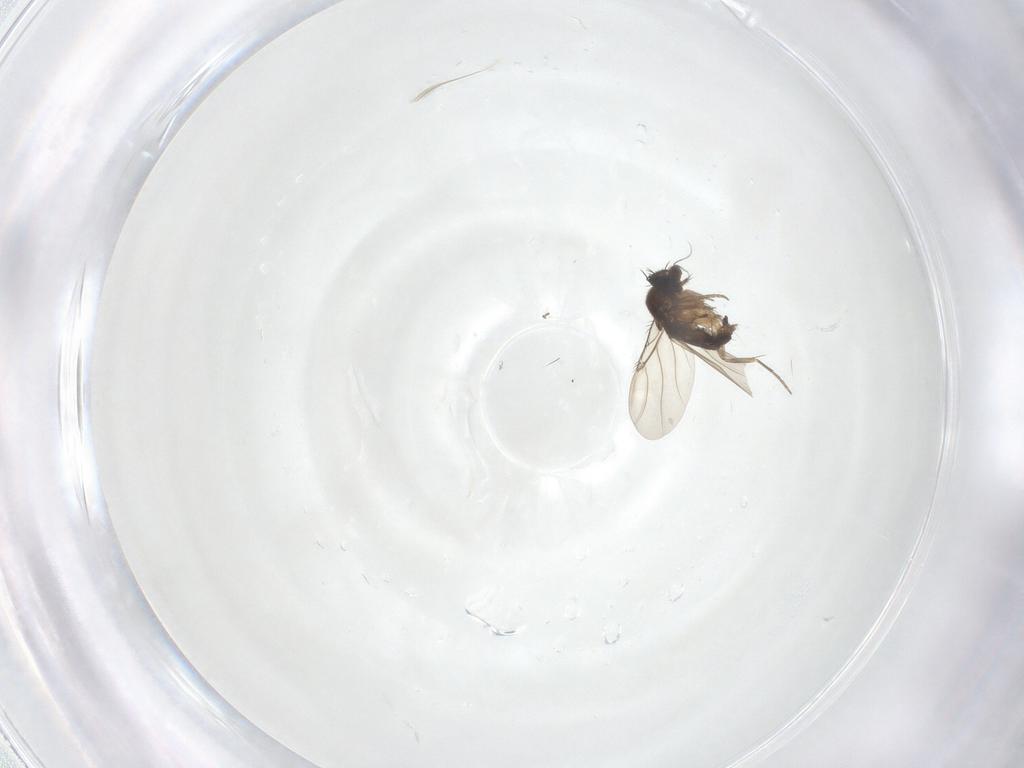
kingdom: Animalia
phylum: Arthropoda
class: Insecta
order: Diptera
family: Phoridae
